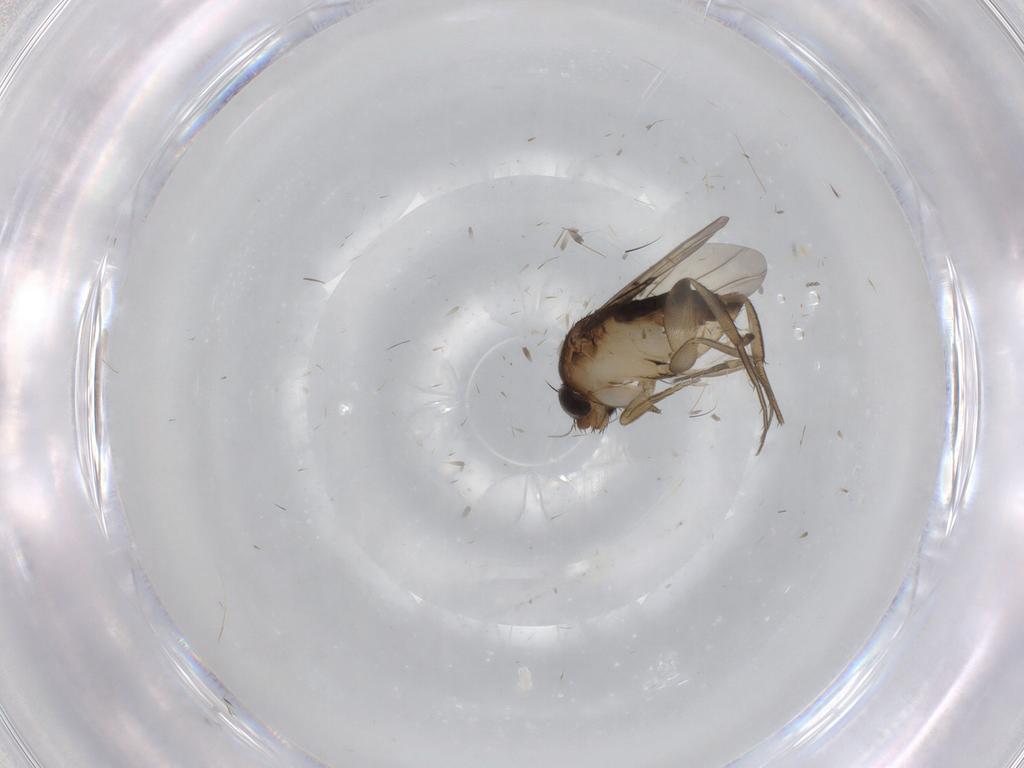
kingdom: Animalia
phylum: Arthropoda
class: Insecta
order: Diptera
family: Cecidomyiidae
